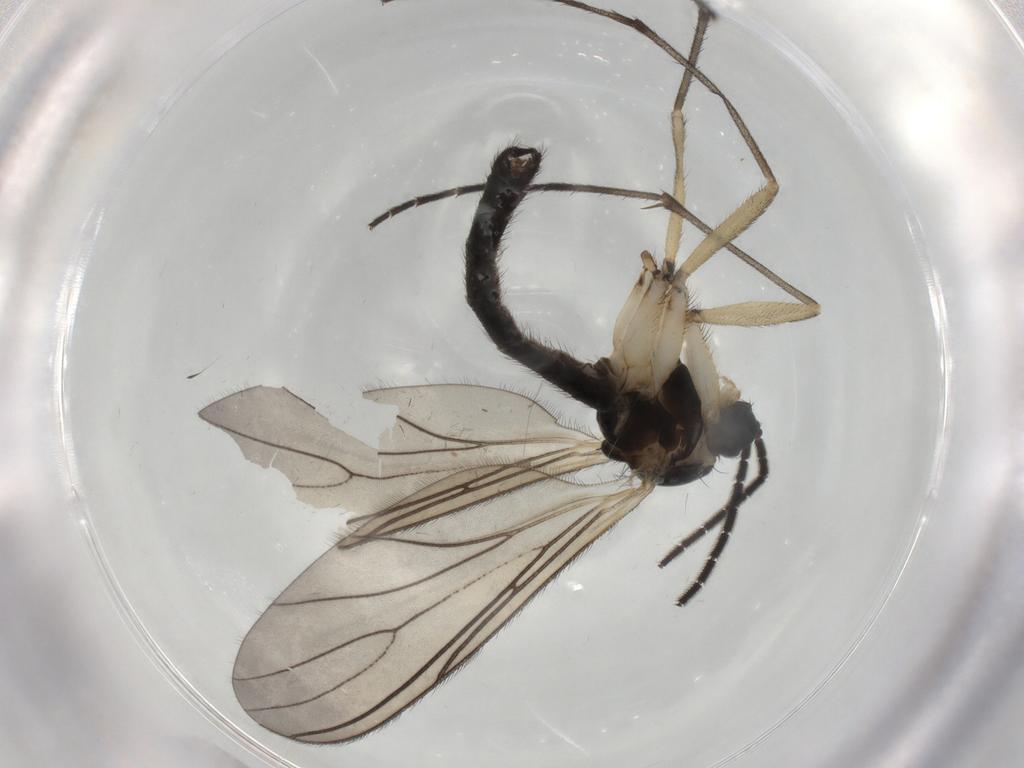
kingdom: Animalia
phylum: Arthropoda
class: Insecta
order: Diptera
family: Sciaridae
